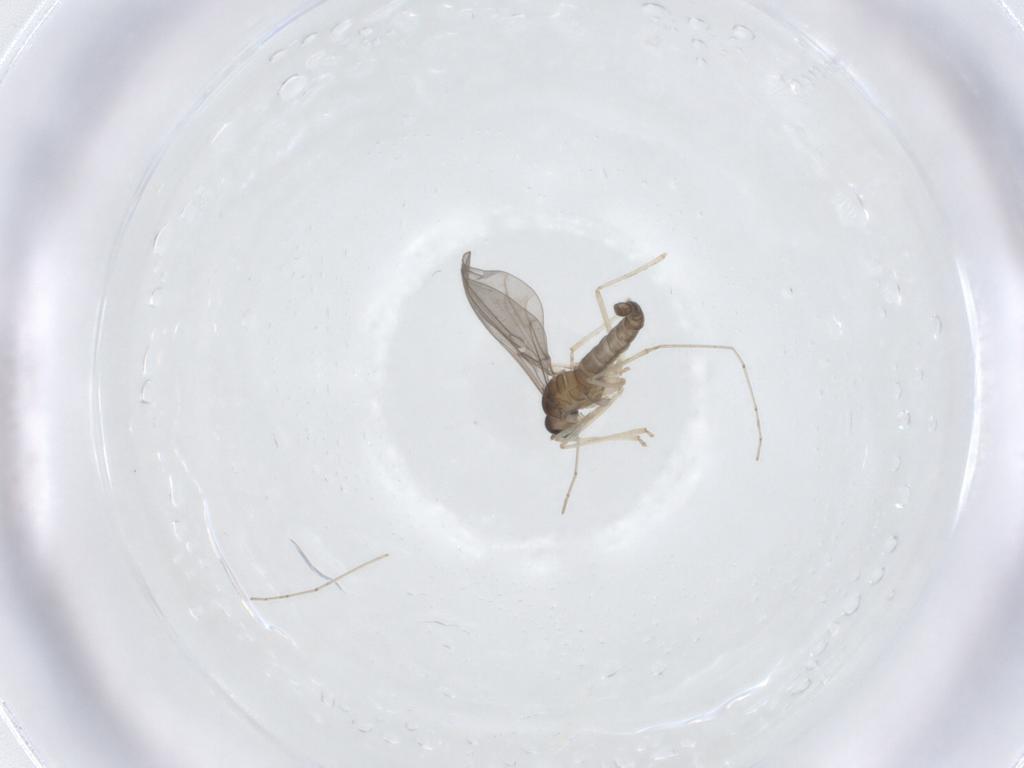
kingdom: Animalia
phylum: Arthropoda
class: Insecta
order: Diptera
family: Cecidomyiidae
